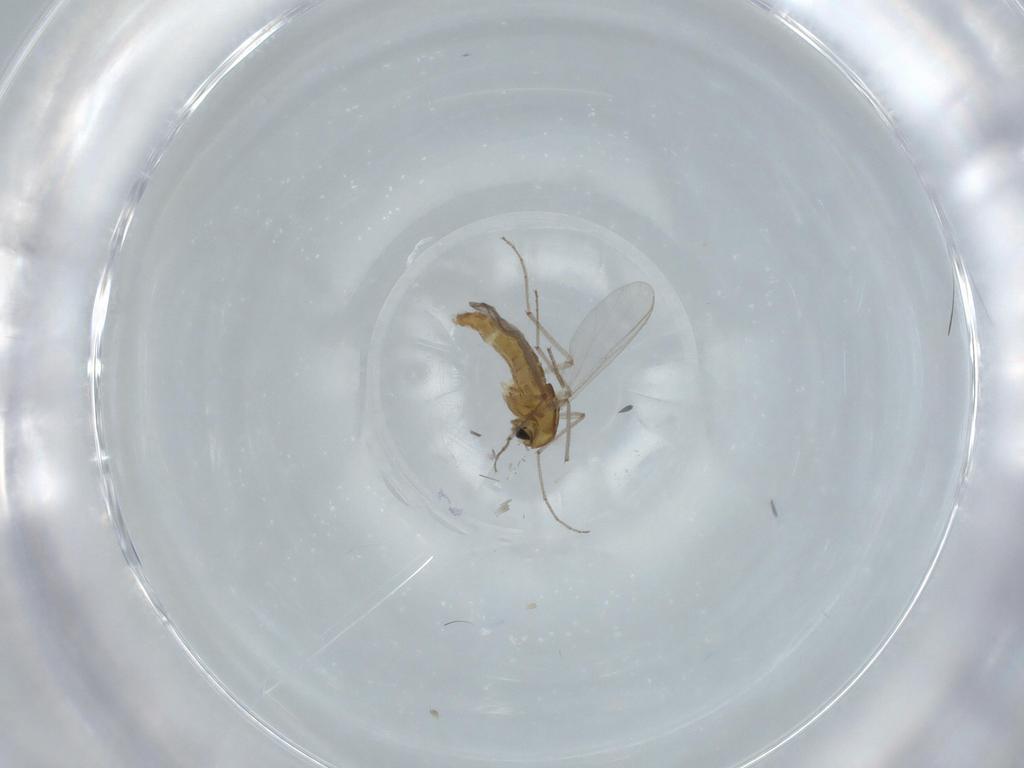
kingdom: Animalia
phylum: Arthropoda
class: Insecta
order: Diptera
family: Chironomidae
